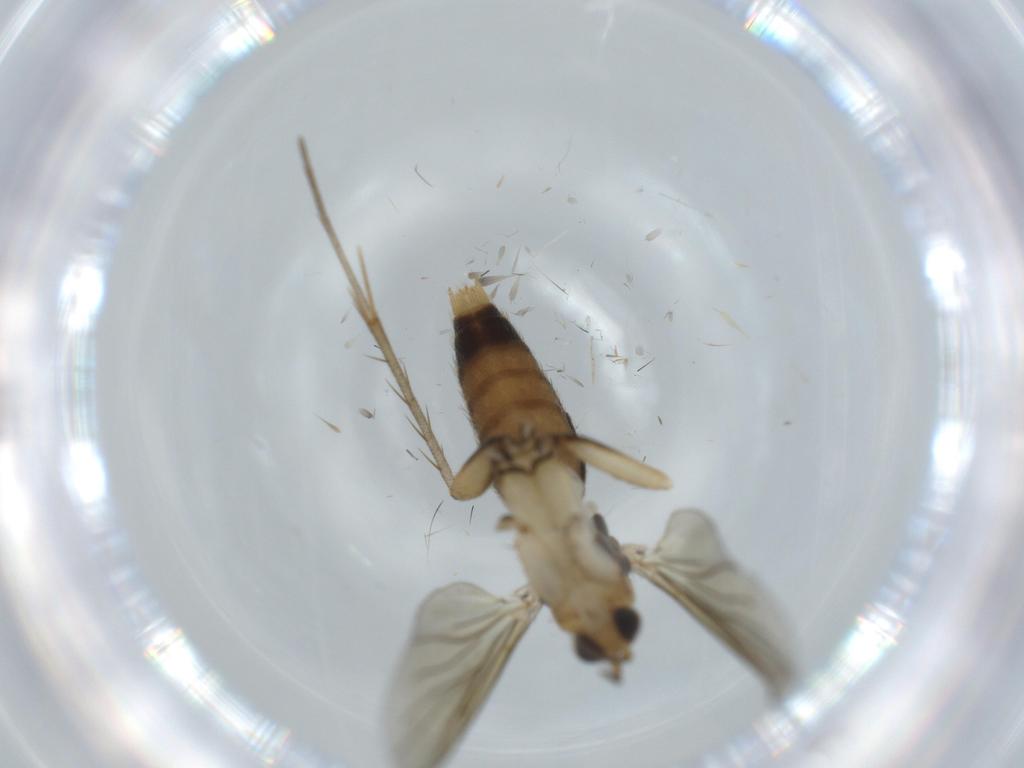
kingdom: Animalia
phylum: Arthropoda
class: Insecta
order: Diptera
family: Mycetophilidae
